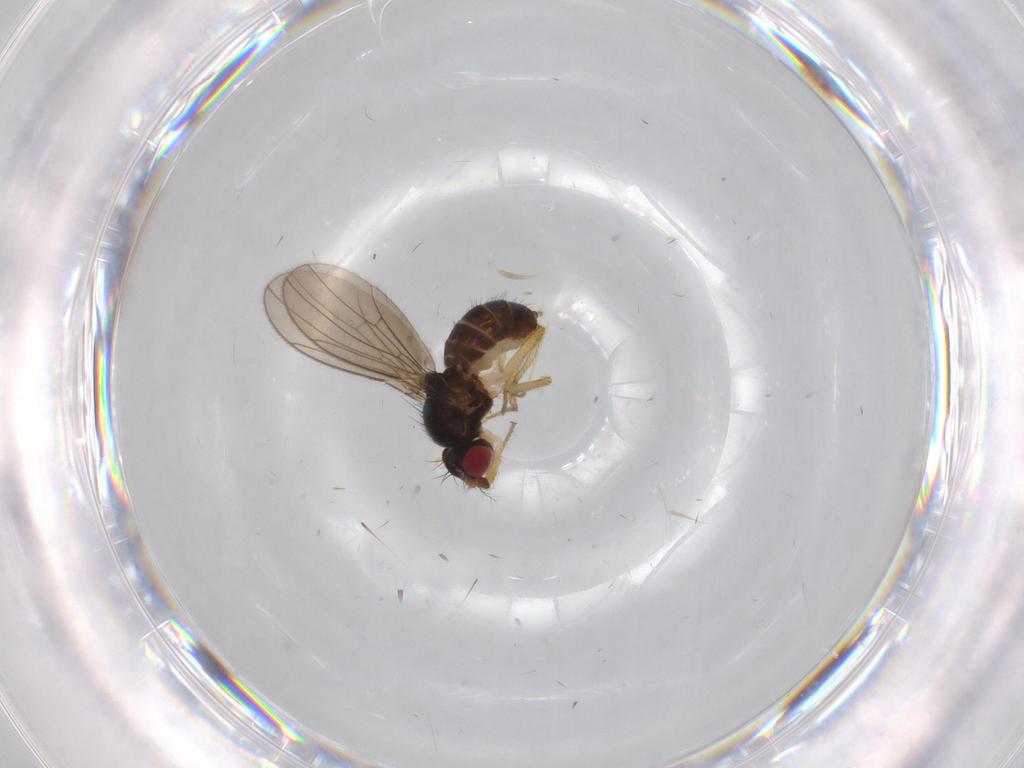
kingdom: Animalia
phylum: Arthropoda
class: Insecta
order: Diptera
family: Drosophilidae
